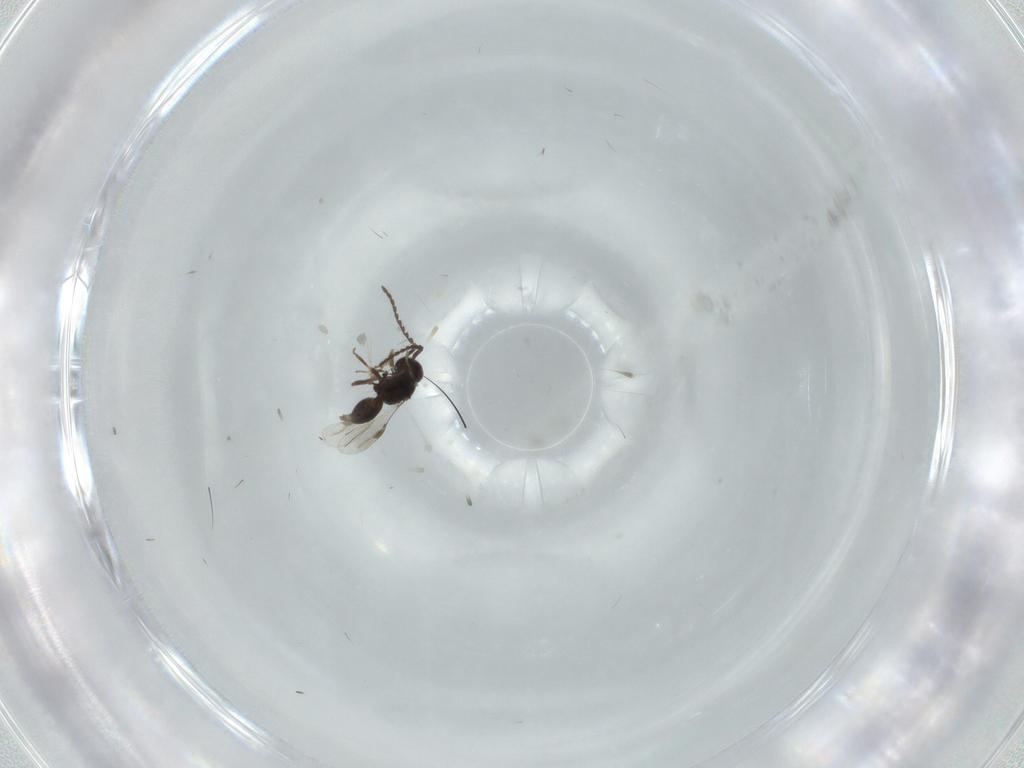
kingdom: Animalia
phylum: Arthropoda
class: Insecta
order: Hymenoptera
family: Megaspilidae
